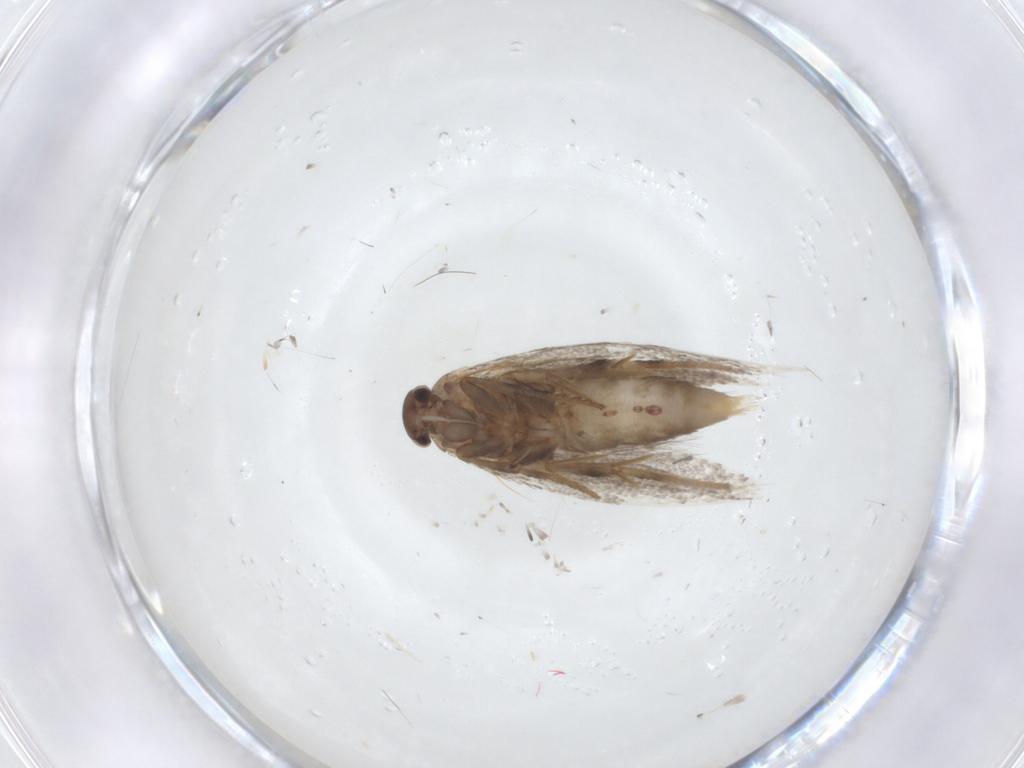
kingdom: Animalia
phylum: Arthropoda
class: Insecta
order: Lepidoptera
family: Elachistidae
